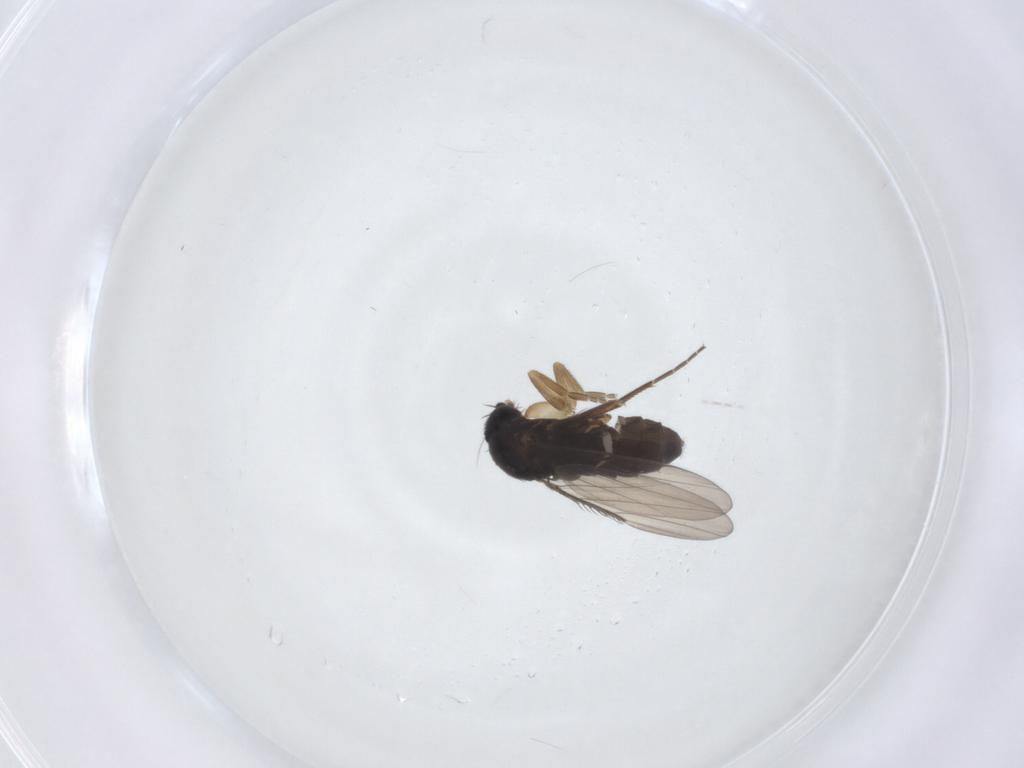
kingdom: Animalia
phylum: Arthropoda
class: Insecta
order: Diptera
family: Phoridae
